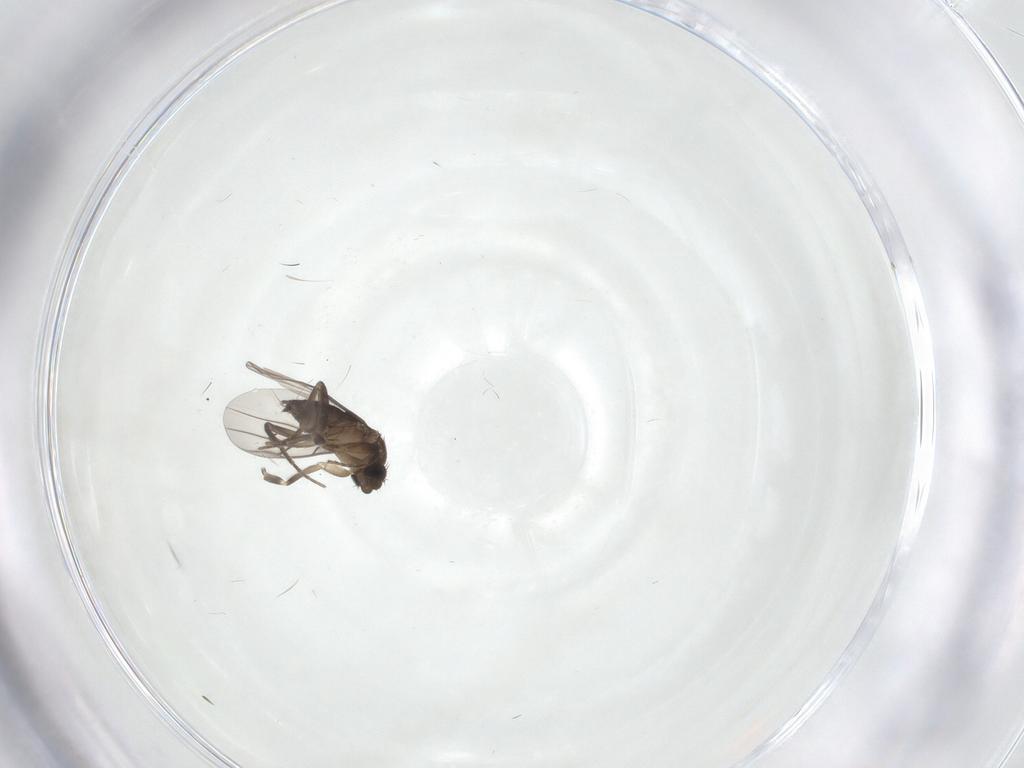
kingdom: Animalia
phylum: Arthropoda
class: Insecta
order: Diptera
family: Phoridae
